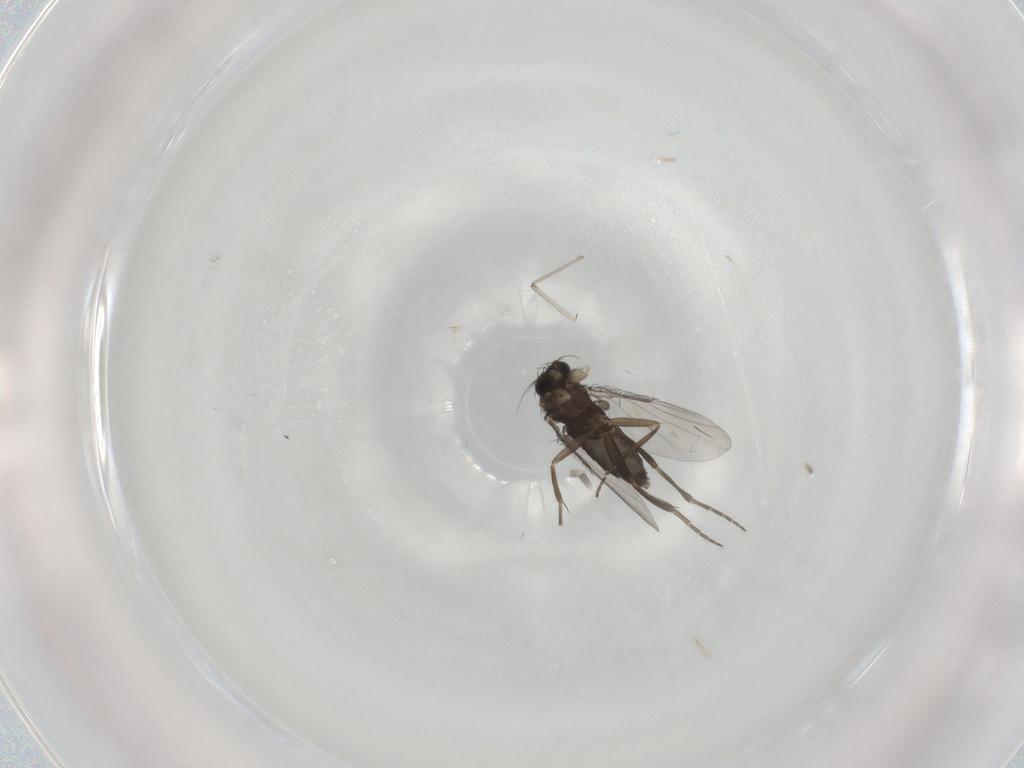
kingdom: Animalia
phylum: Arthropoda
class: Insecta
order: Diptera
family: Phoridae
